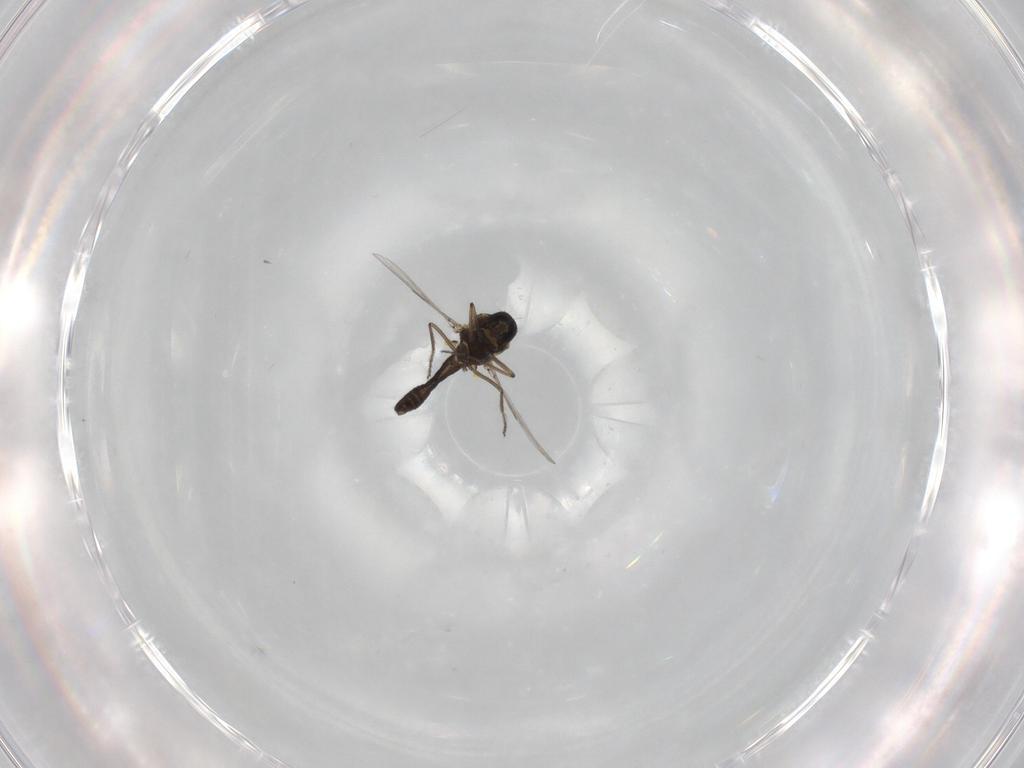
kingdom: Animalia
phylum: Arthropoda
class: Insecta
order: Diptera
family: Ceratopogonidae
